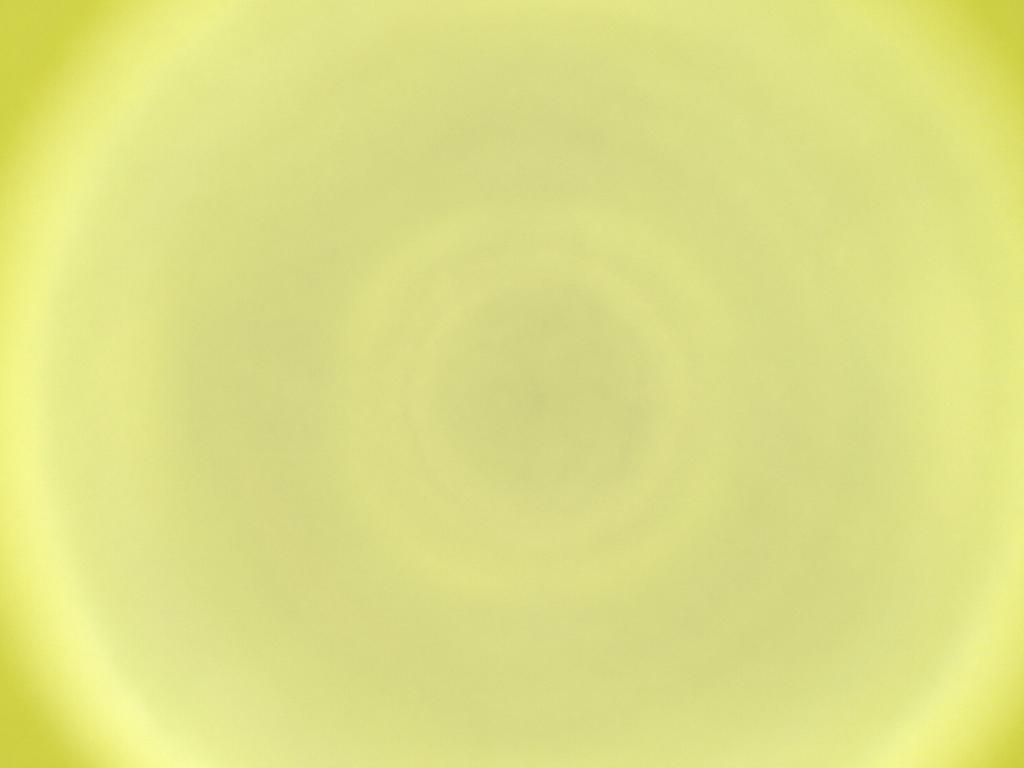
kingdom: Animalia
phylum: Arthropoda
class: Insecta
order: Diptera
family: Cecidomyiidae
